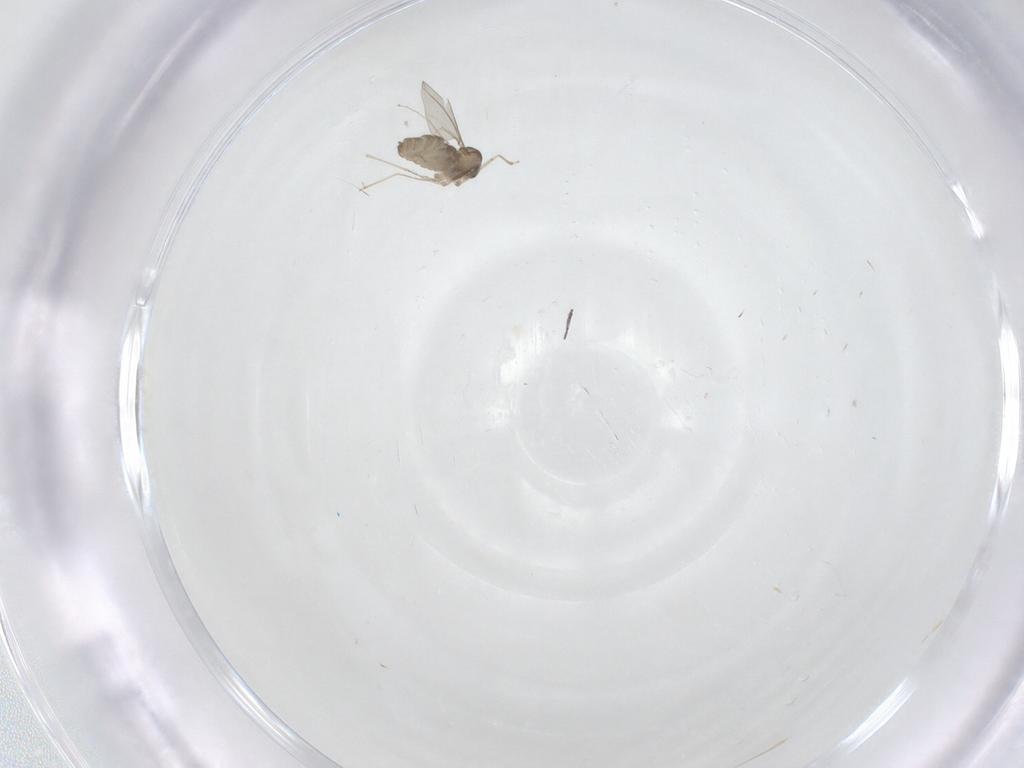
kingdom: Animalia
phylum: Arthropoda
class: Insecta
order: Diptera
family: Cecidomyiidae
